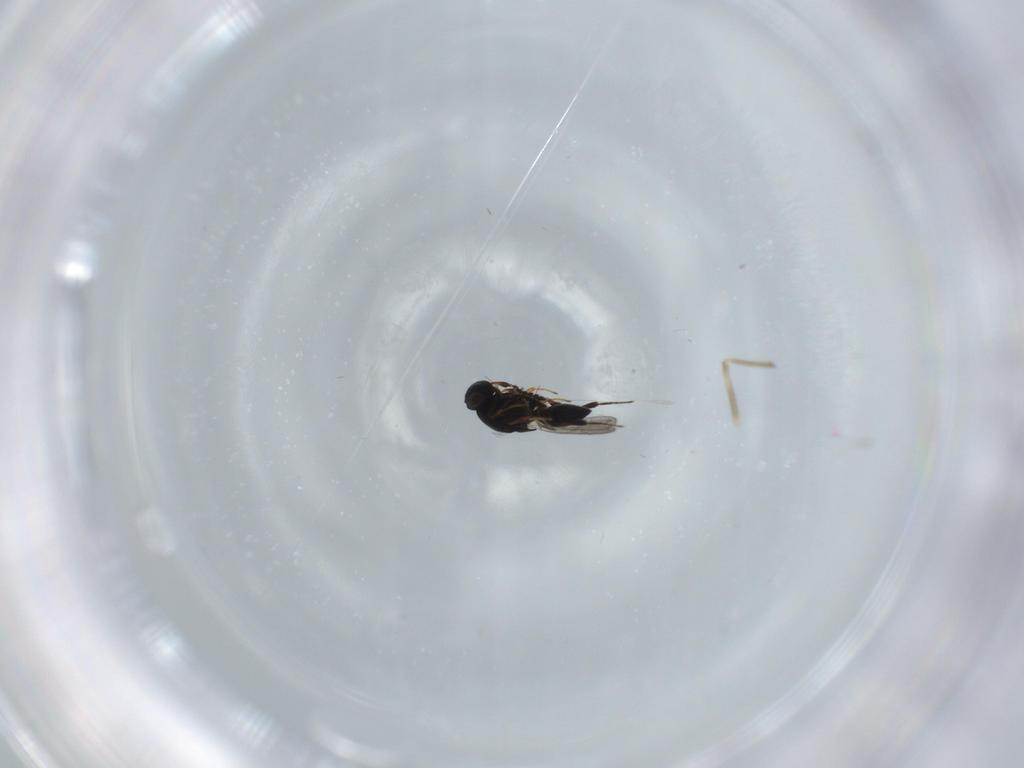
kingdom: Animalia
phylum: Arthropoda
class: Insecta
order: Hymenoptera
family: Platygastridae
